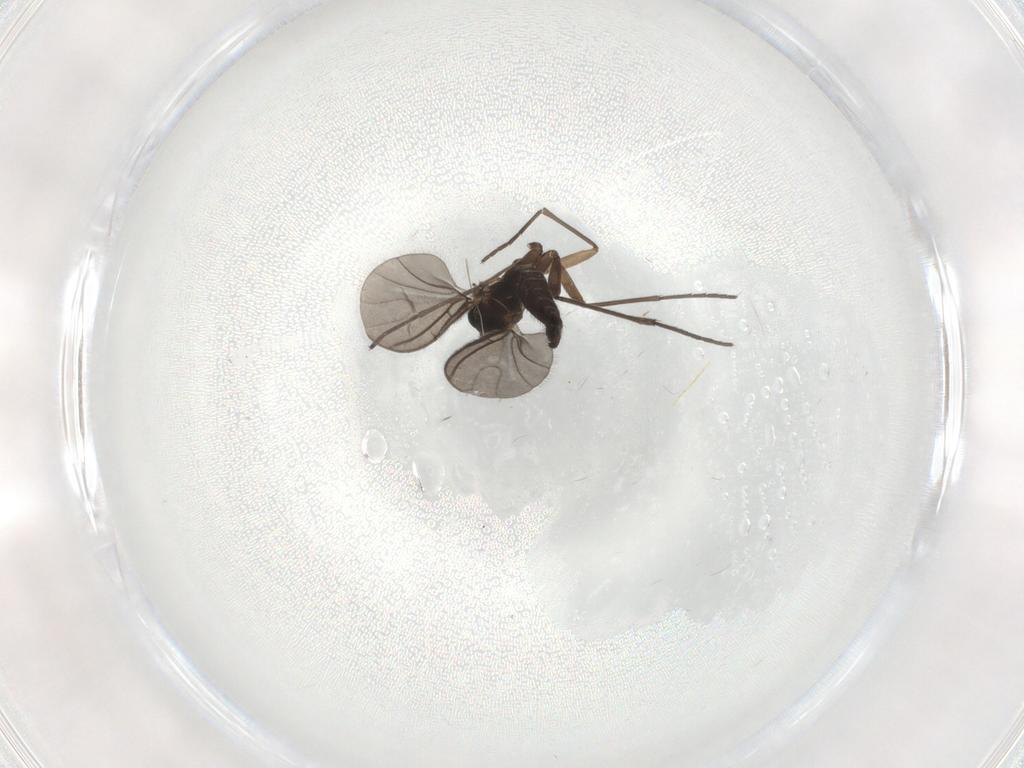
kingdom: Animalia
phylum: Arthropoda
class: Insecta
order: Diptera
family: Sciaridae
